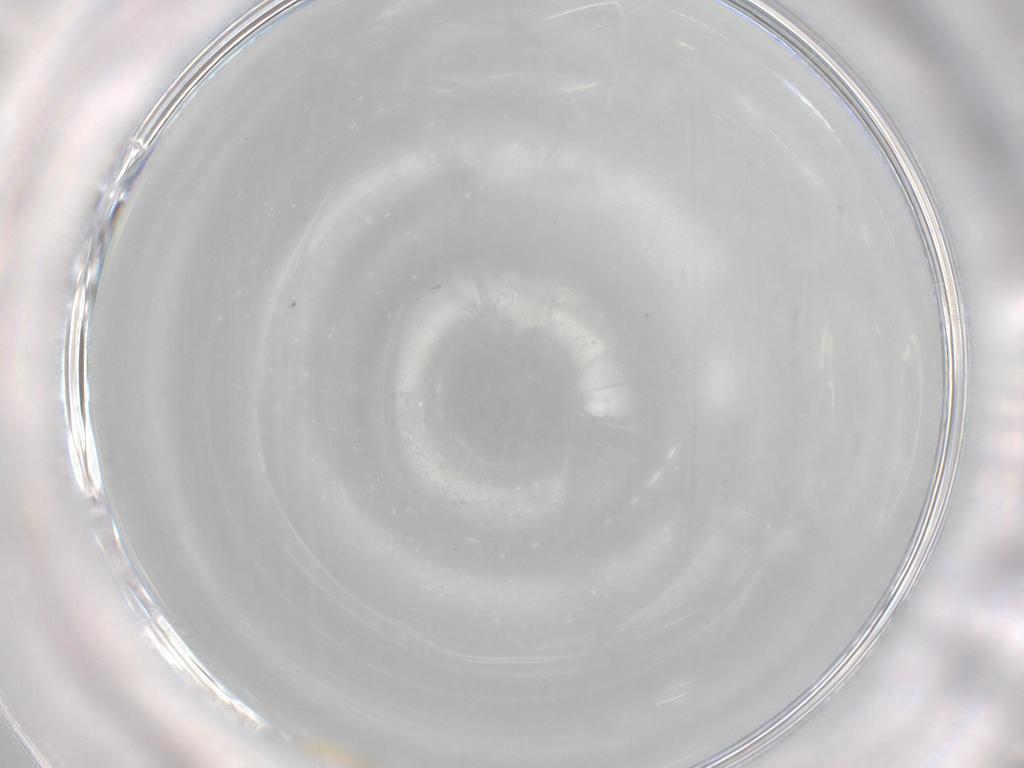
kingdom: Animalia
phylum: Arthropoda
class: Insecta
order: Diptera
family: Cecidomyiidae
